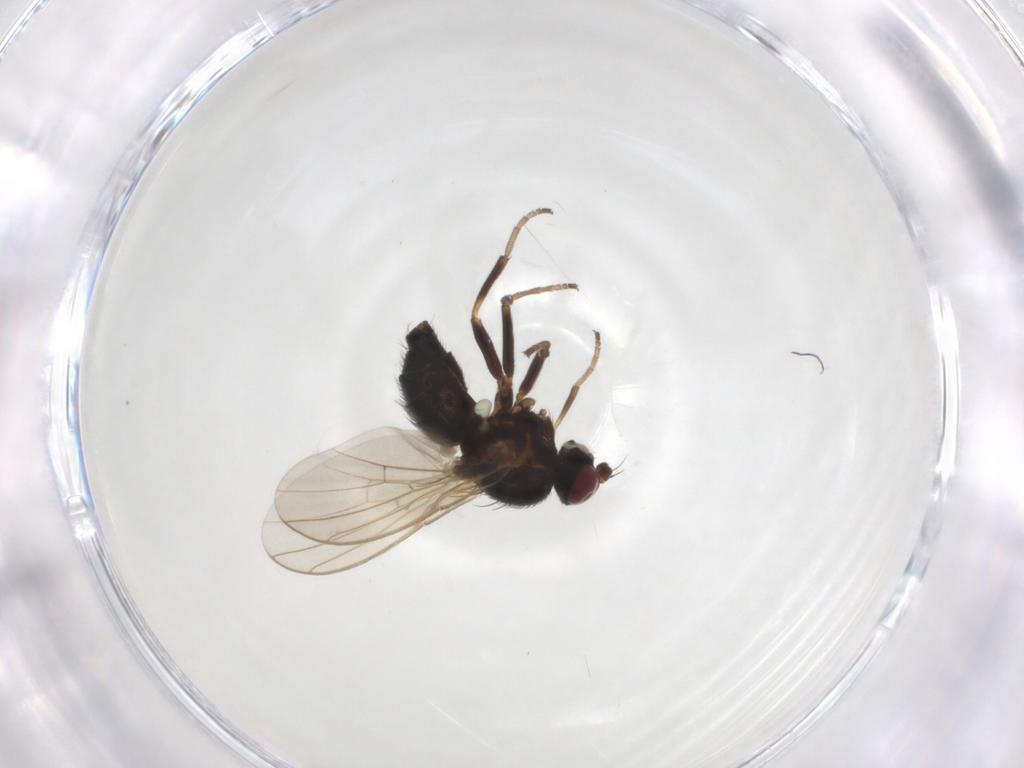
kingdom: Animalia
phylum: Arthropoda
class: Insecta
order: Diptera
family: Agromyzidae
